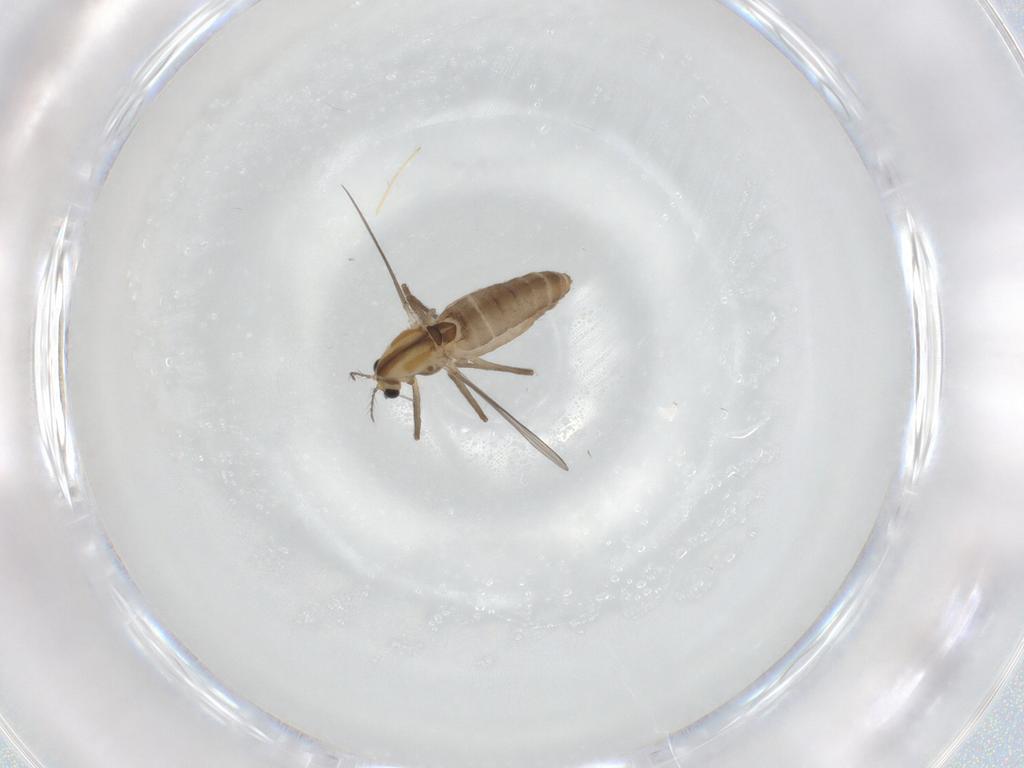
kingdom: Animalia
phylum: Arthropoda
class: Insecta
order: Diptera
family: Chironomidae
